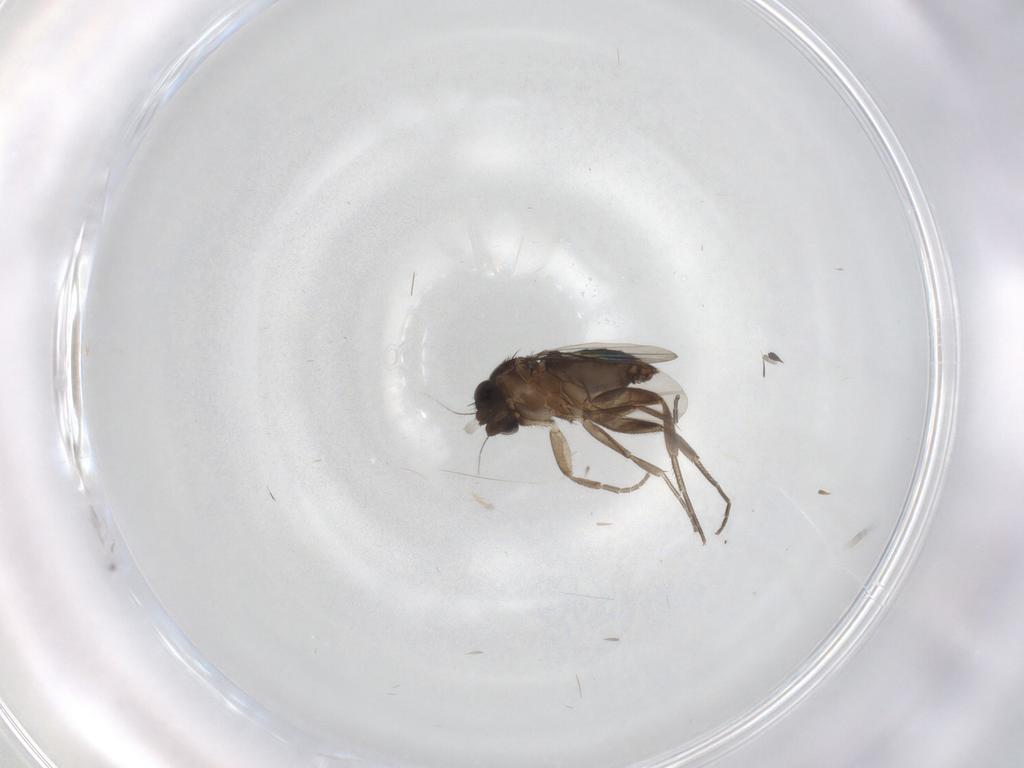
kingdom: Animalia
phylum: Arthropoda
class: Insecta
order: Diptera
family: Phoridae
